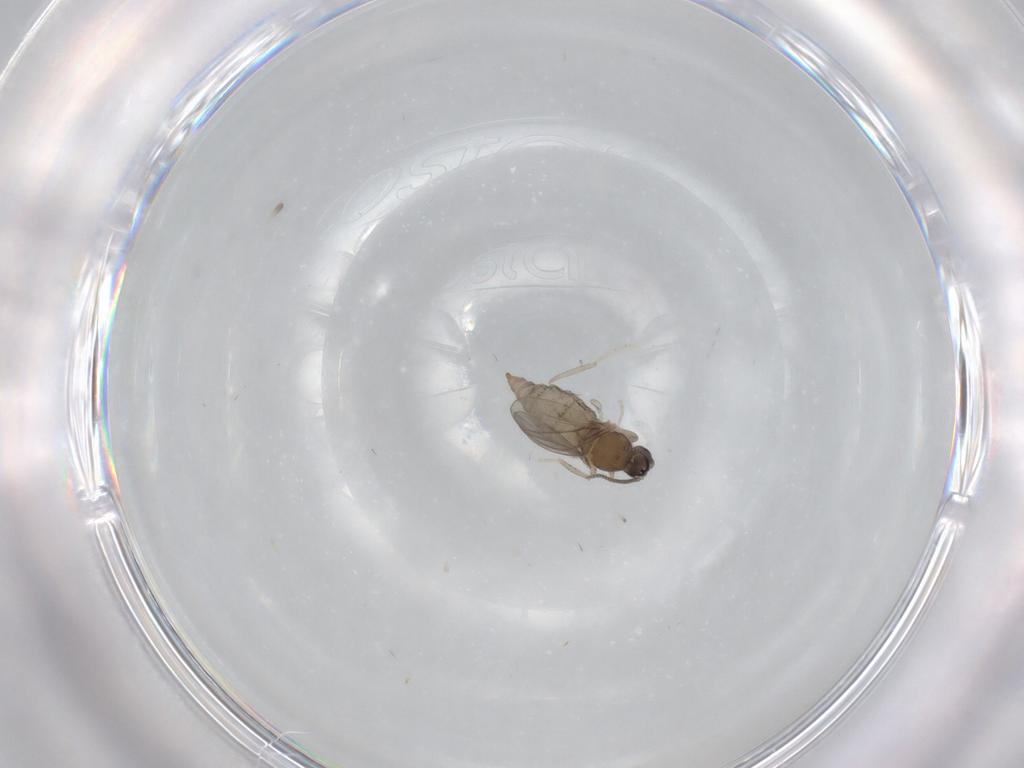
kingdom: Animalia
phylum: Arthropoda
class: Insecta
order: Diptera
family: Cecidomyiidae
